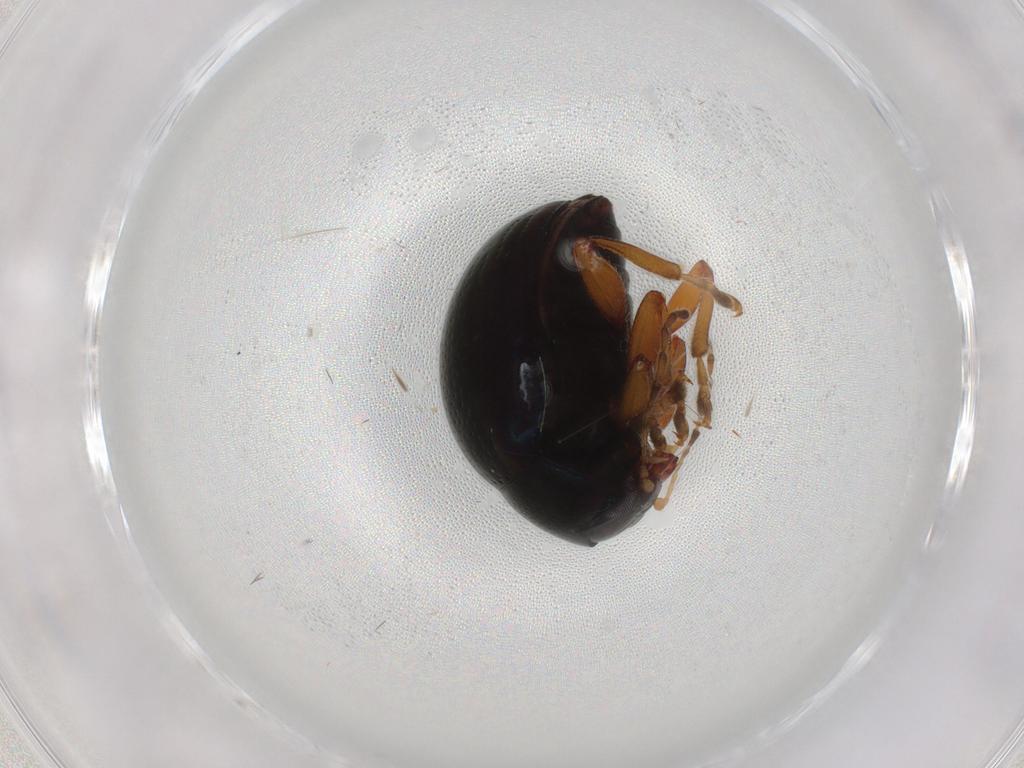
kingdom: Animalia
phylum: Arthropoda
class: Insecta
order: Coleoptera
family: Chrysomelidae
